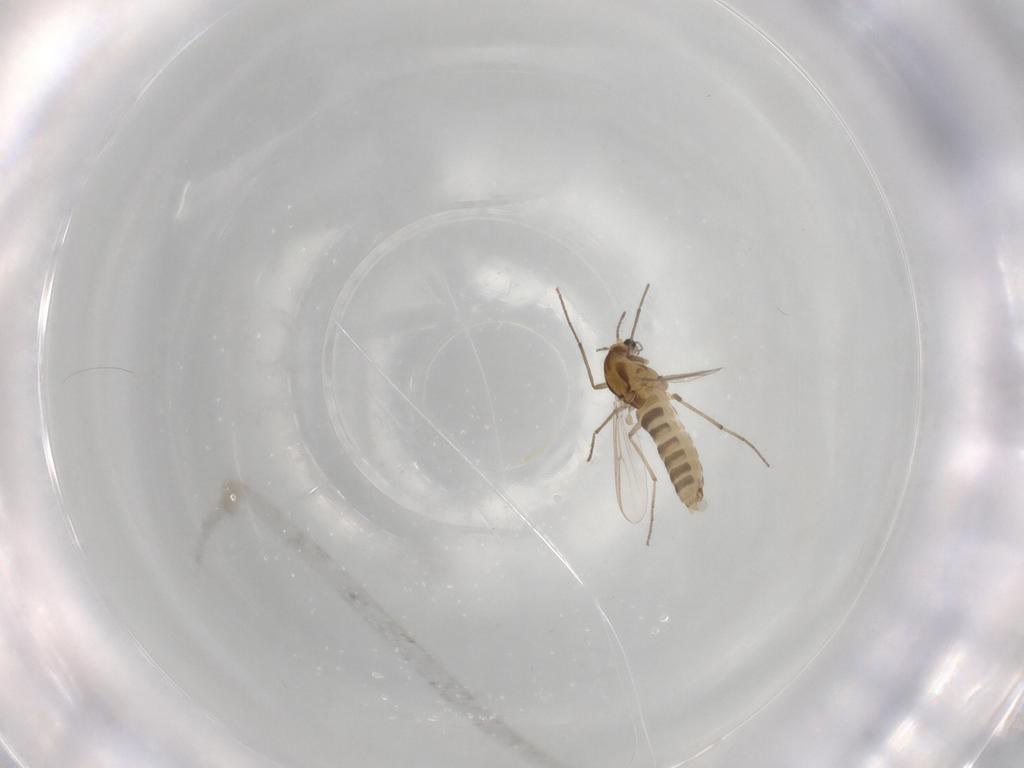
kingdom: Animalia
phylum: Arthropoda
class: Insecta
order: Diptera
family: Chironomidae
